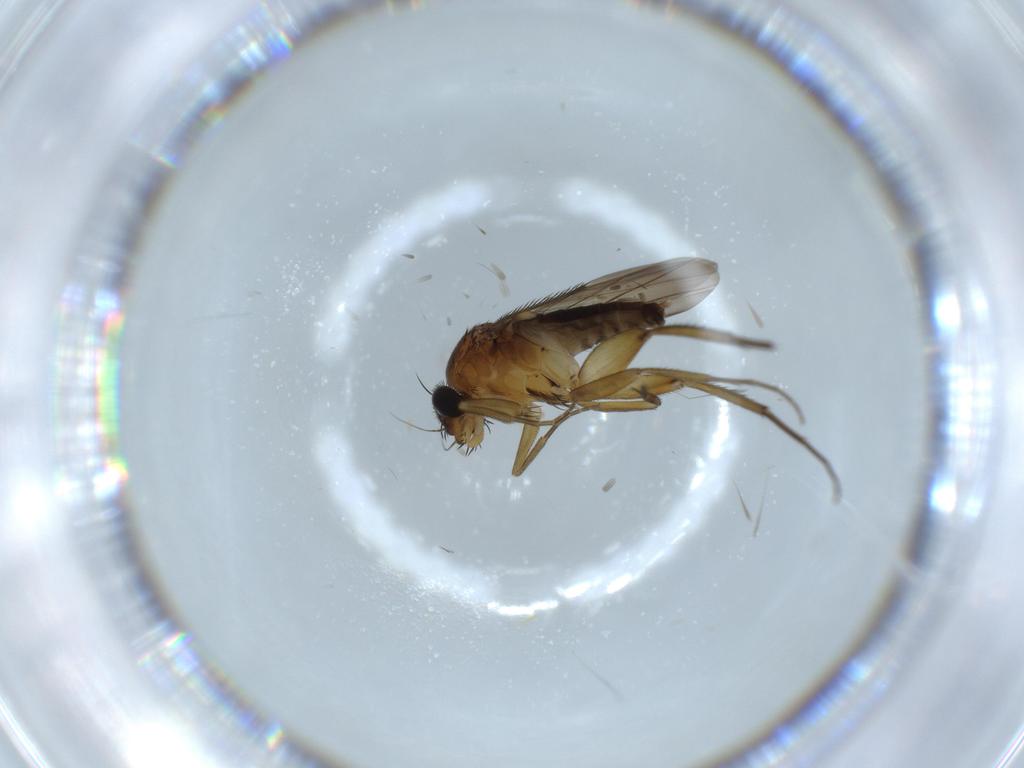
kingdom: Animalia
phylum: Arthropoda
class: Insecta
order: Diptera
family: Phoridae
